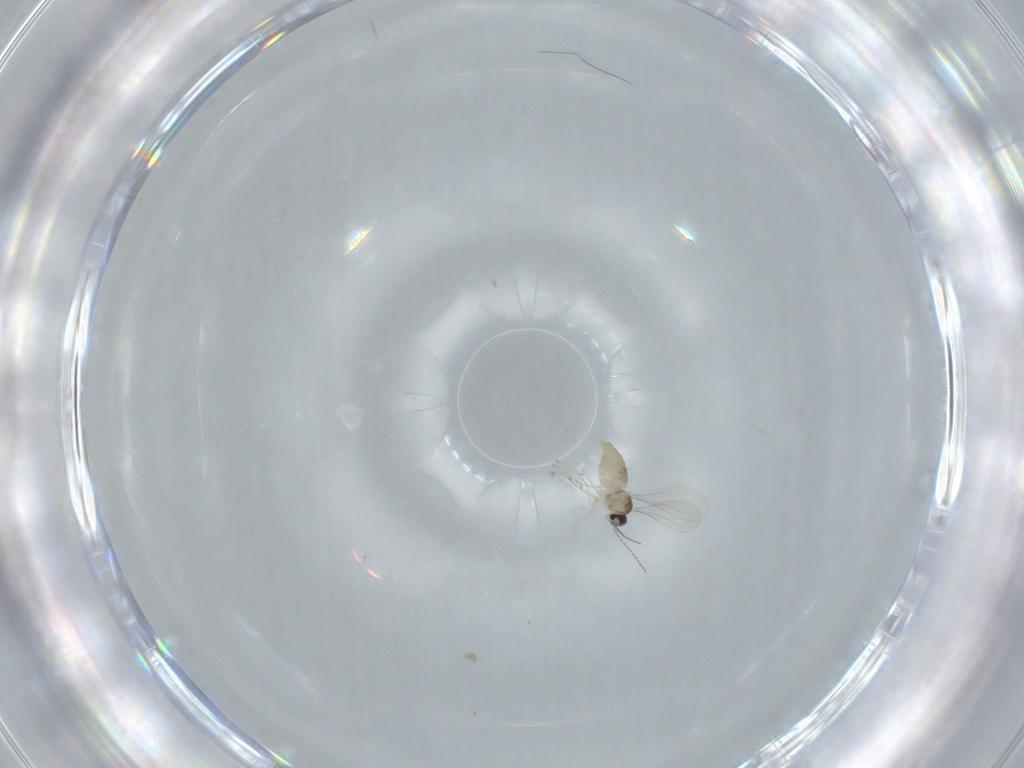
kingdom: Animalia
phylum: Arthropoda
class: Insecta
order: Diptera
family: Cecidomyiidae
